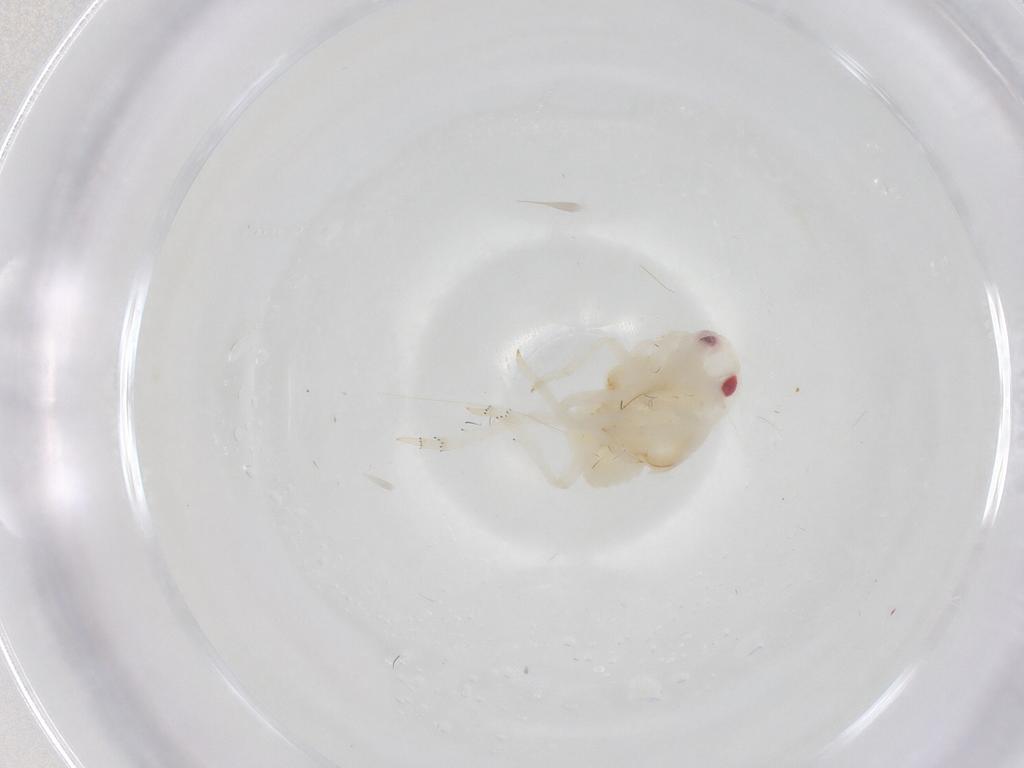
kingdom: Animalia
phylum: Arthropoda
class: Insecta
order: Hemiptera
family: Flatidae
